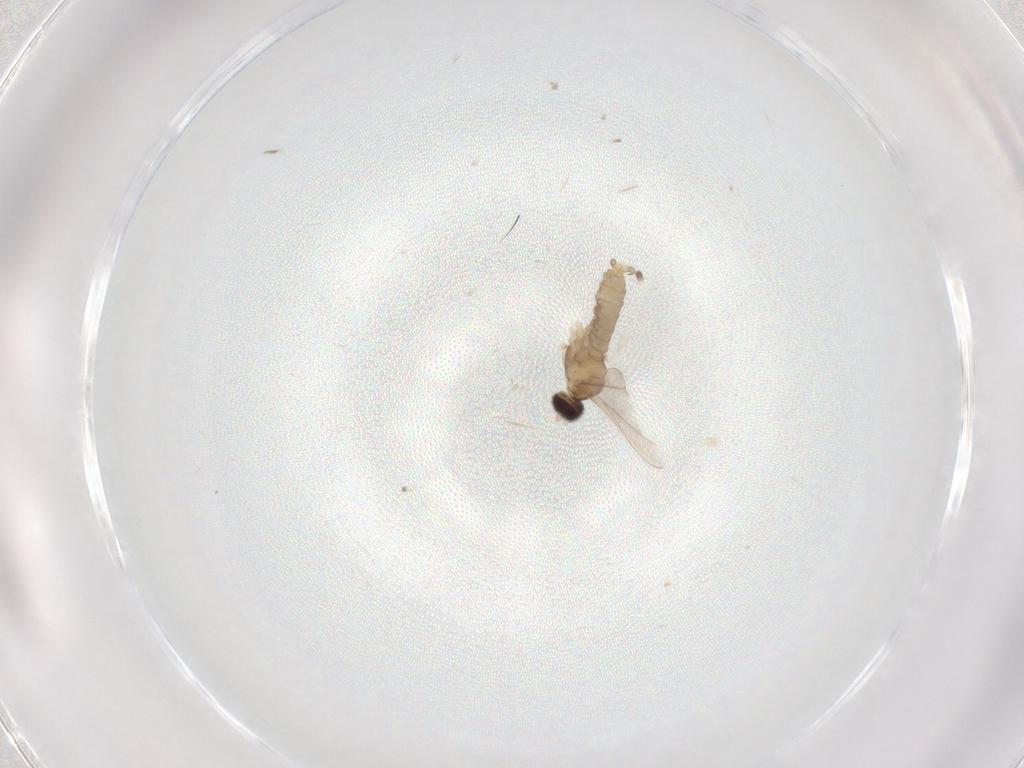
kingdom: Animalia
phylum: Arthropoda
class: Insecta
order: Diptera
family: Cecidomyiidae
